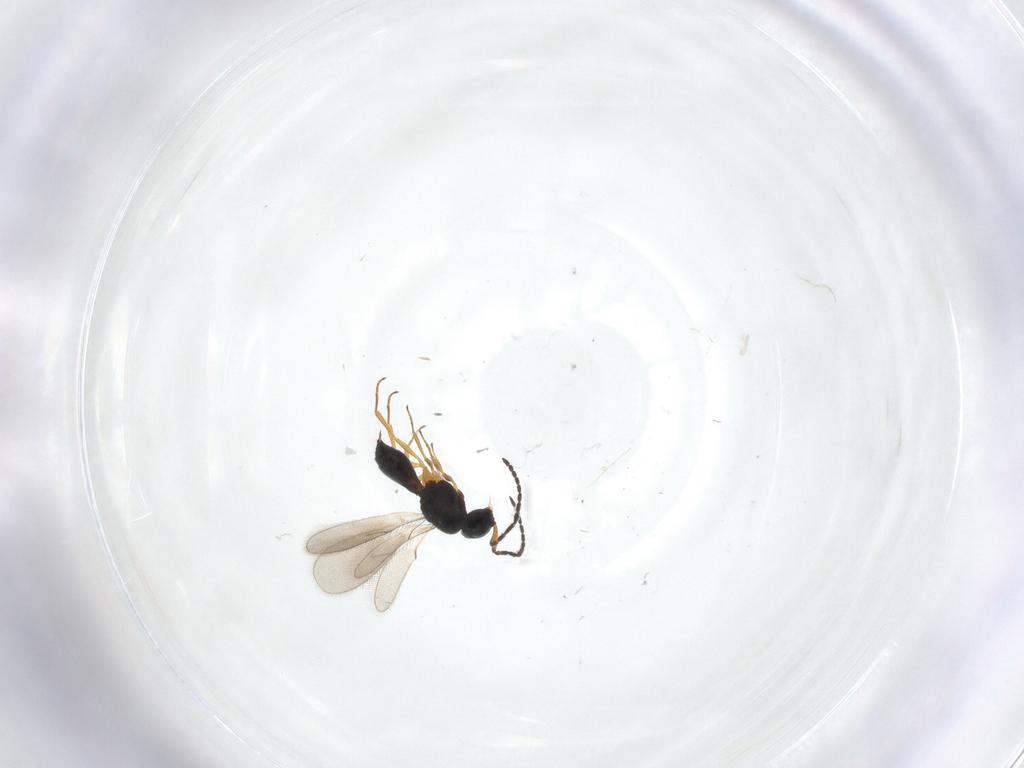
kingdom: Animalia
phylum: Arthropoda
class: Insecta
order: Hymenoptera
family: Scelionidae
